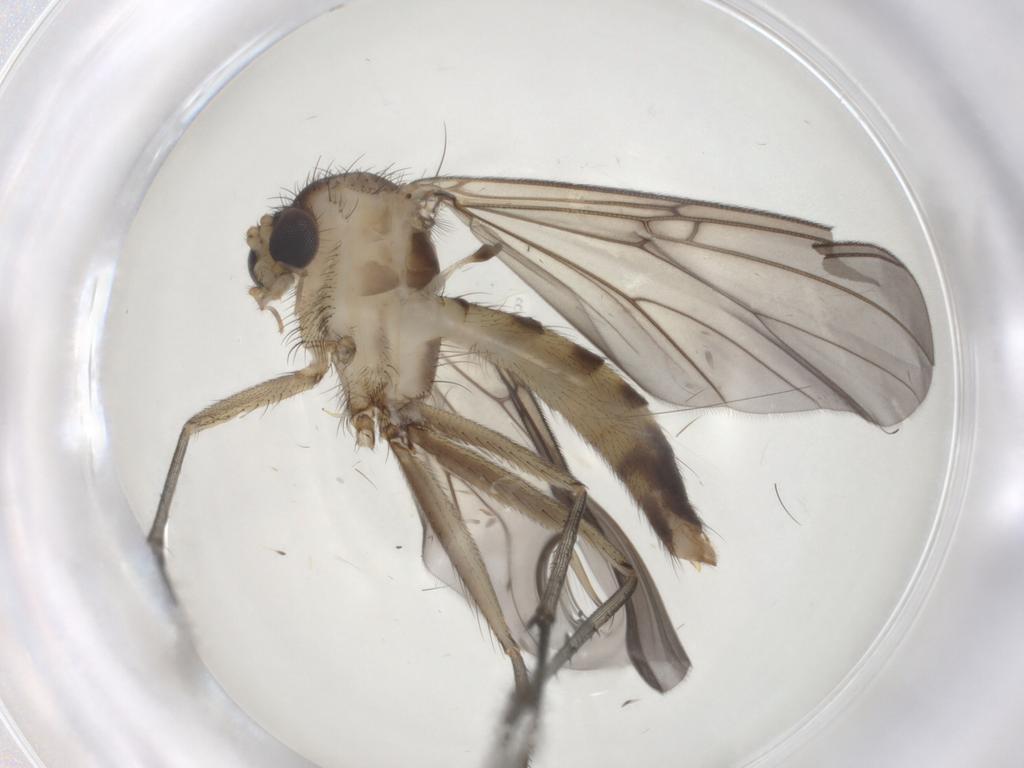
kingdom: Animalia
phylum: Arthropoda
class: Insecta
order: Diptera
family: Mycetophilidae
